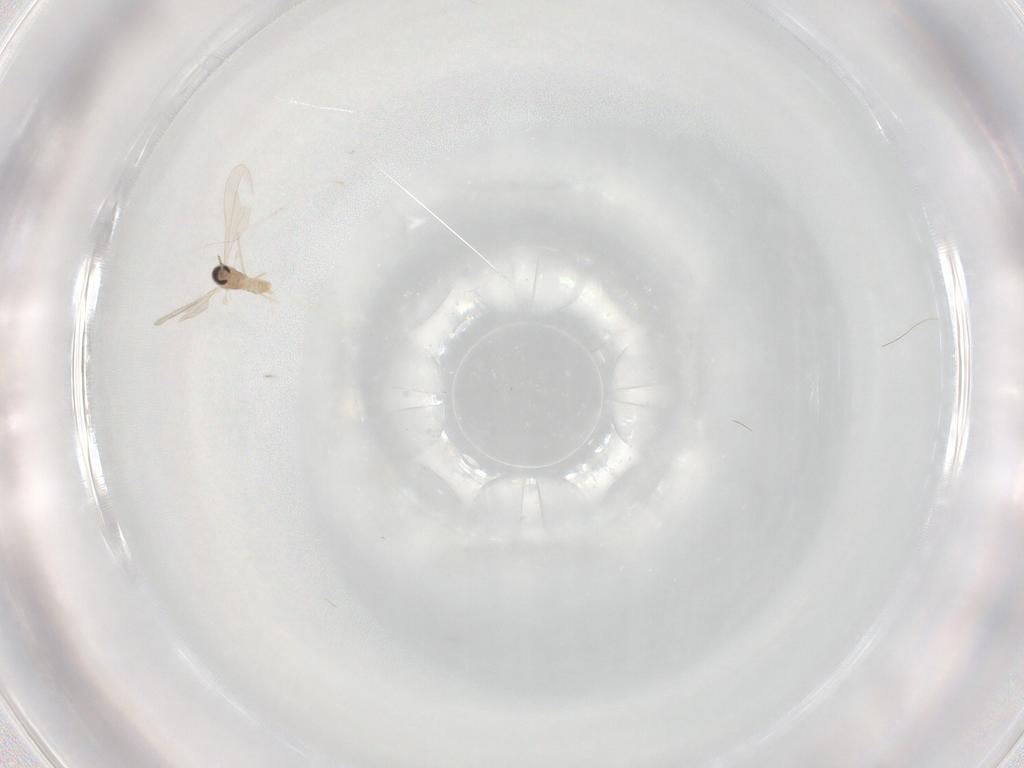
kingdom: Animalia
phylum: Arthropoda
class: Insecta
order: Diptera
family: Cecidomyiidae
